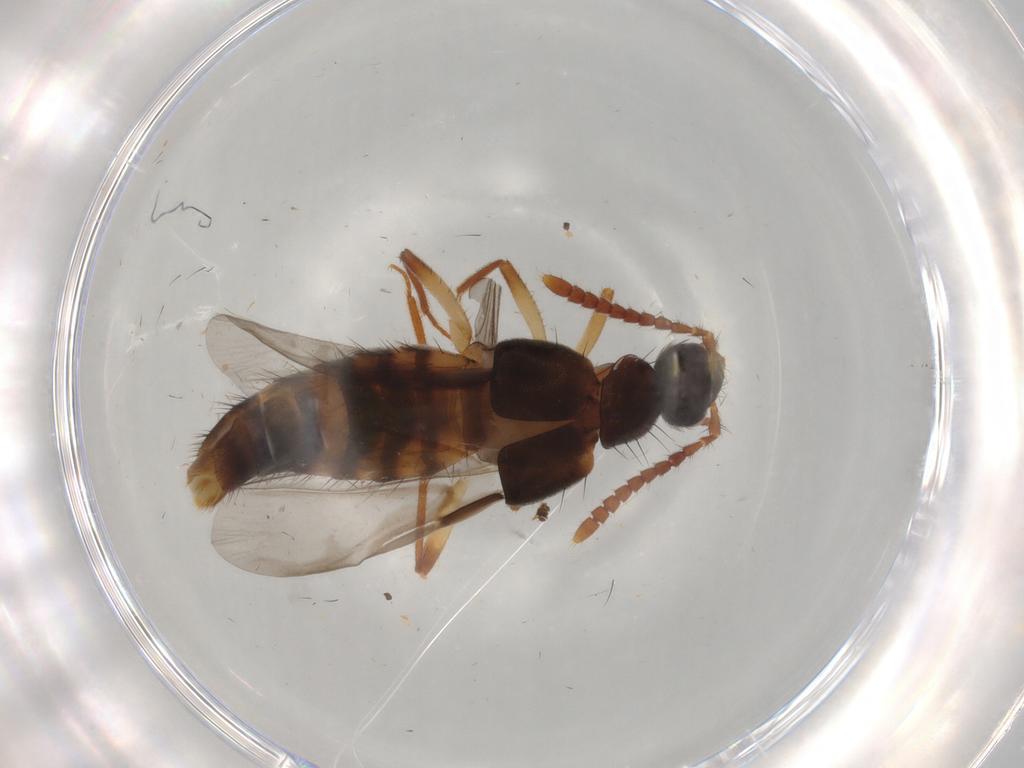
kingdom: Animalia
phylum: Arthropoda
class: Insecta
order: Coleoptera
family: Staphylinidae
